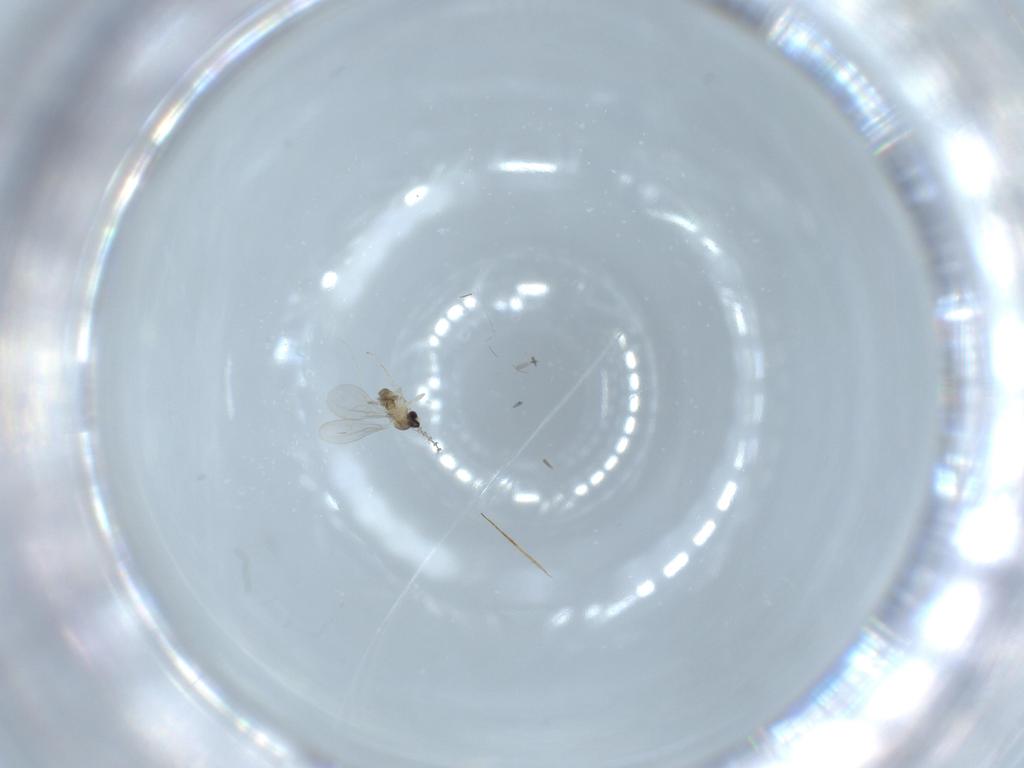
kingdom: Animalia
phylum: Arthropoda
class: Insecta
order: Diptera
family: Cecidomyiidae
